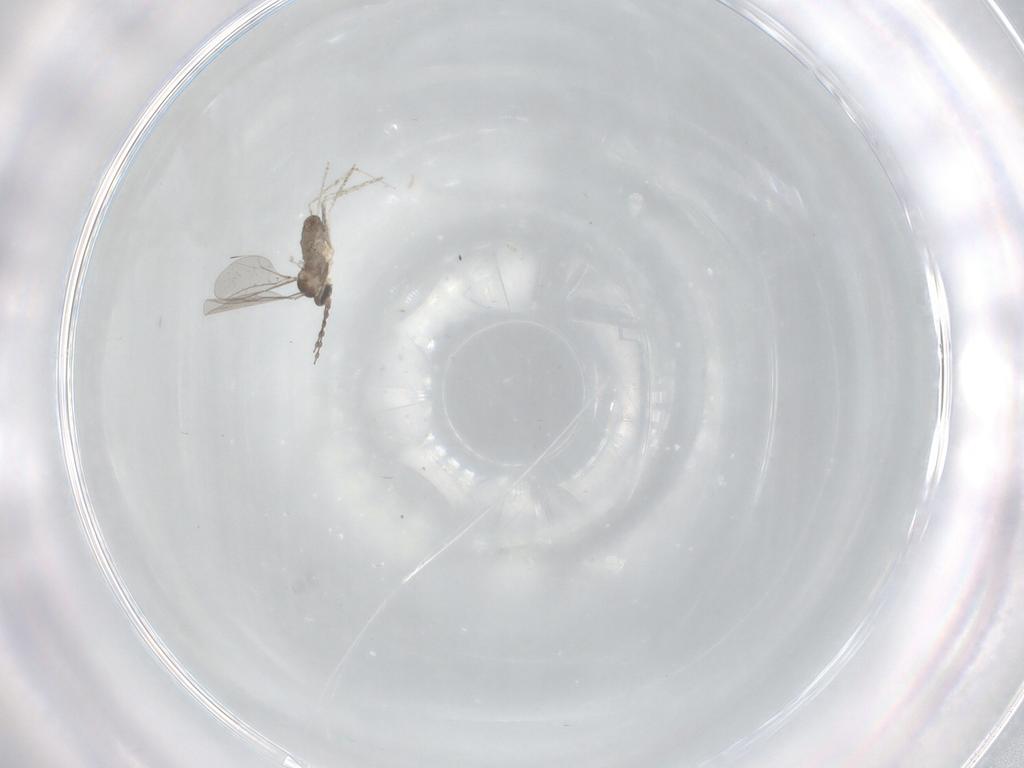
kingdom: Animalia
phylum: Arthropoda
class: Insecta
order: Diptera
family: Cecidomyiidae
